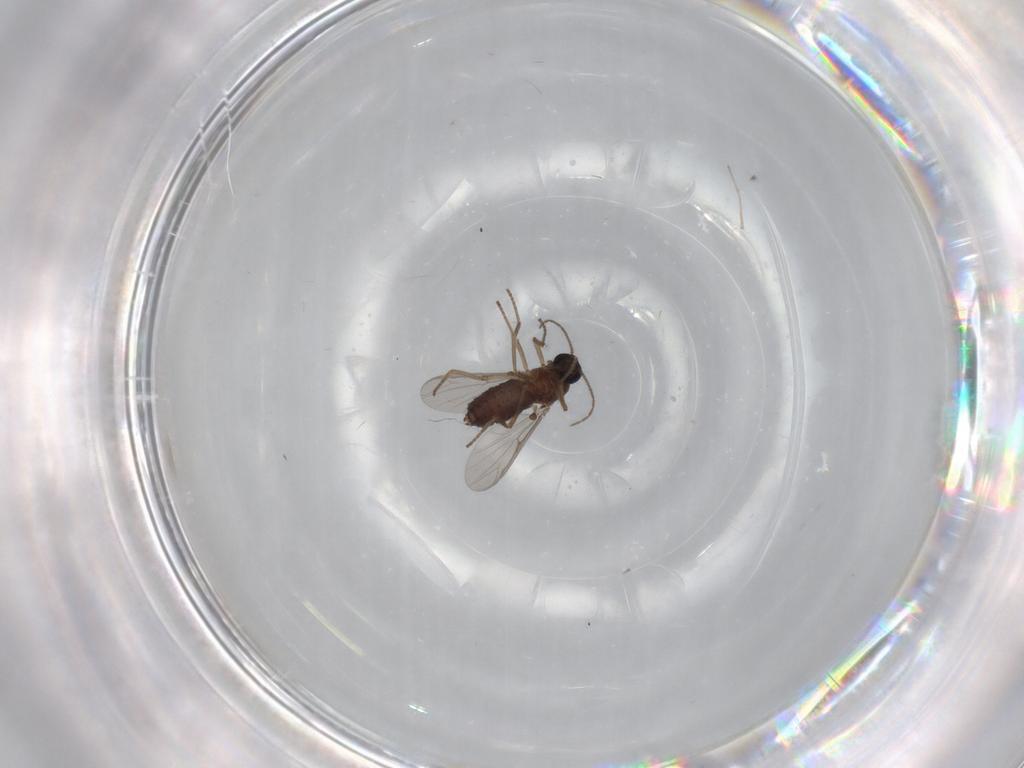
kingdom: Animalia
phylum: Arthropoda
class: Insecta
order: Diptera
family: Ceratopogonidae
